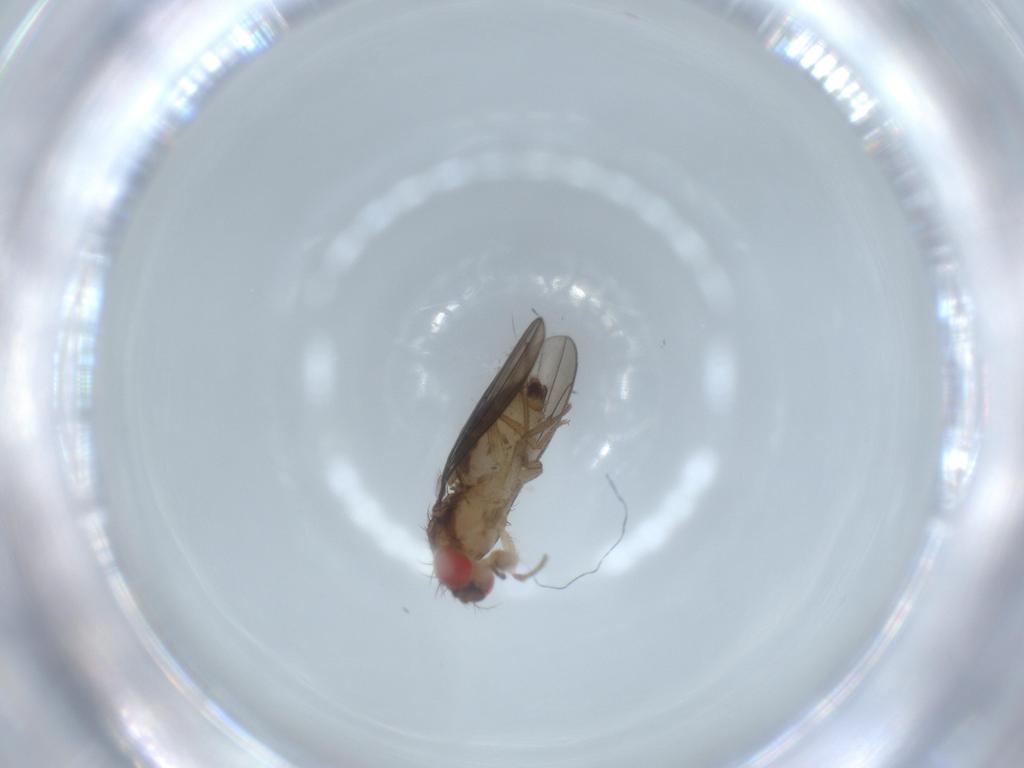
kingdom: Animalia
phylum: Arthropoda
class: Insecta
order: Diptera
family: Drosophilidae
